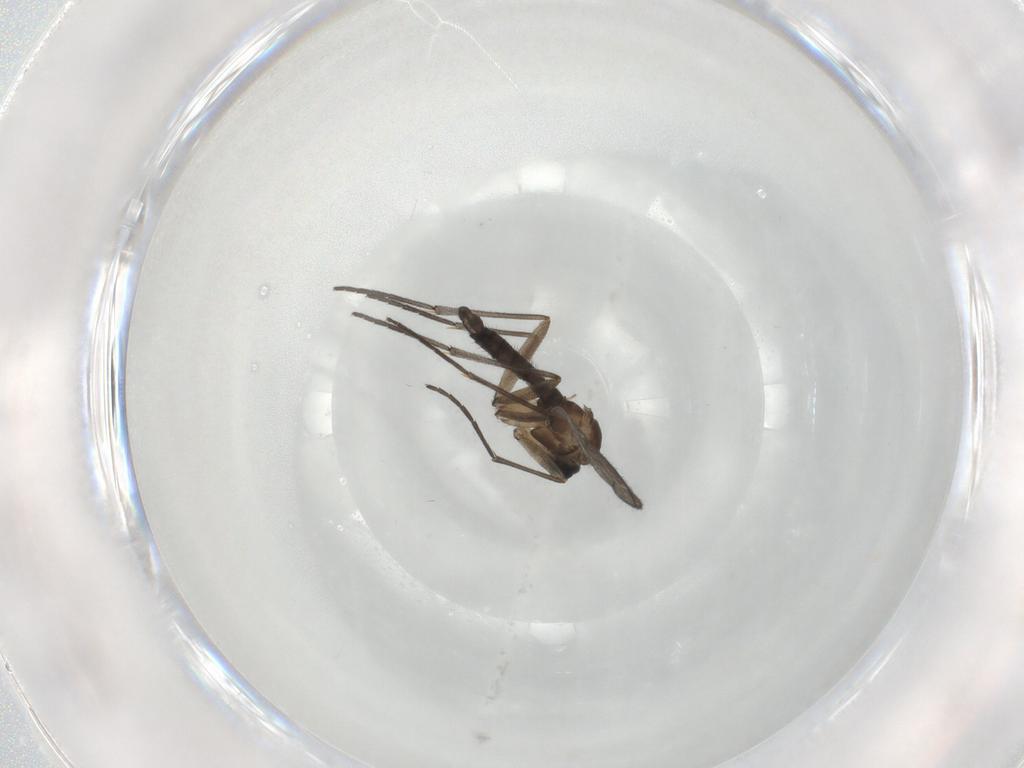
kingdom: Animalia
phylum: Arthropoda
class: Insecta
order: Diptera
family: Sciaridae
